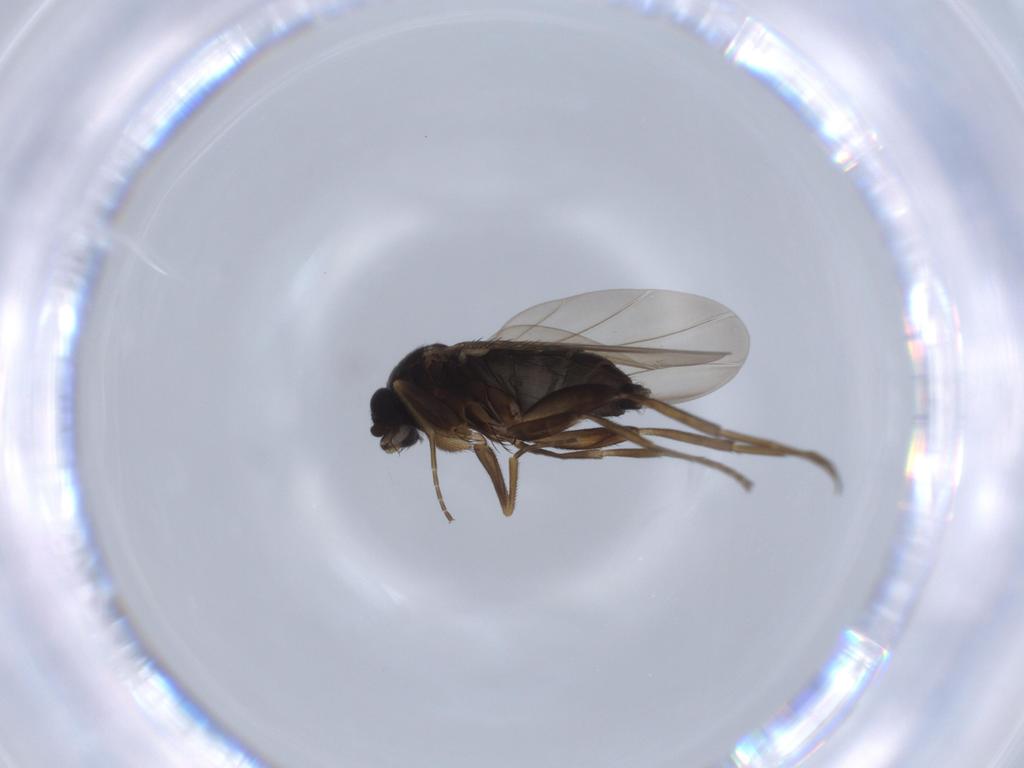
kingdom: Animalia
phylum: Arthropoda
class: Insecta
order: Diptera
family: Phoridae
